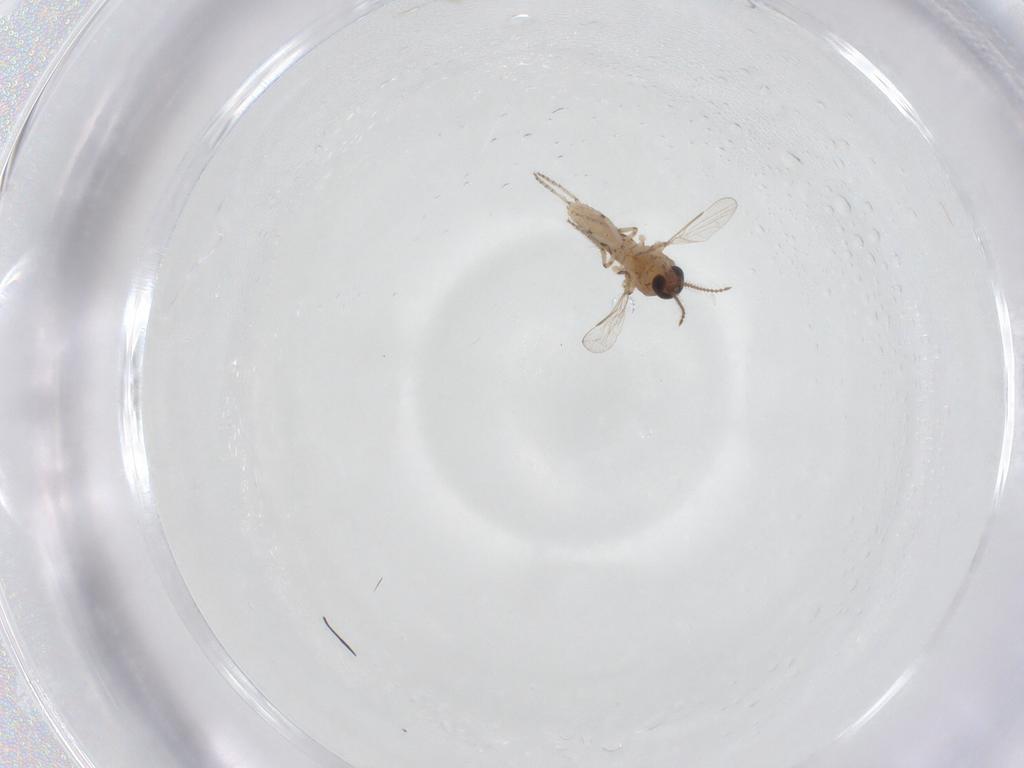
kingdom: Animalia
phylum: Arthropoda
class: Insecta
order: Diptera
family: Ceratopogonidae
